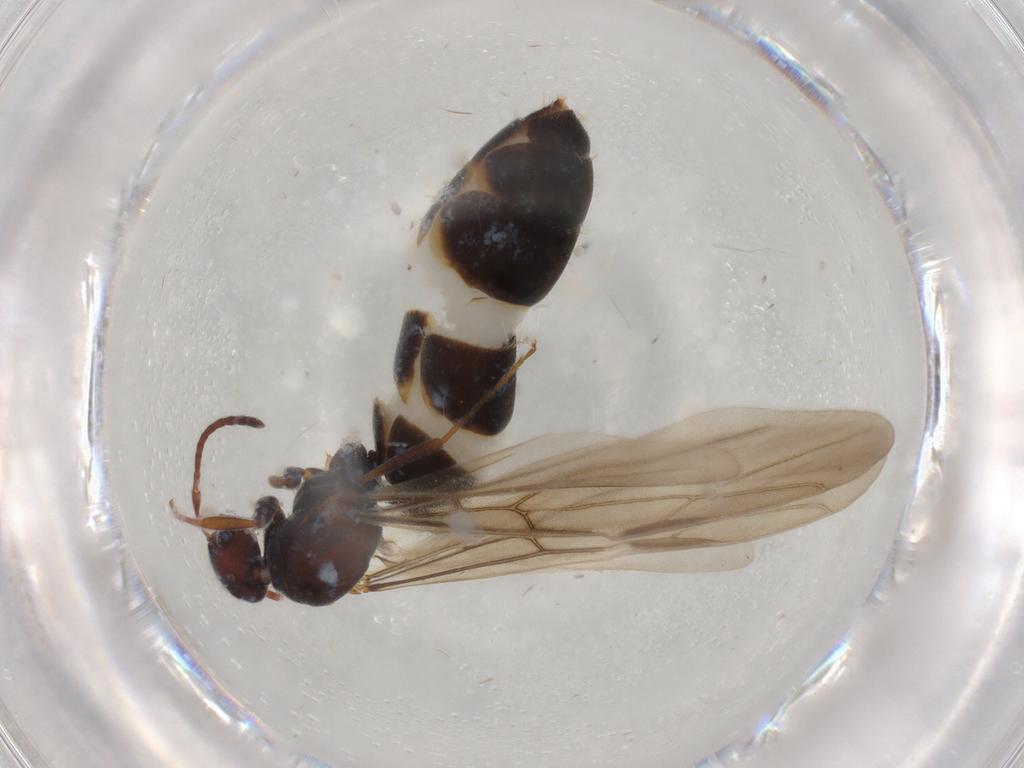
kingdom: Animalia
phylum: Arthropoda
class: Insecta
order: Hymenoptera
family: Formicidae
